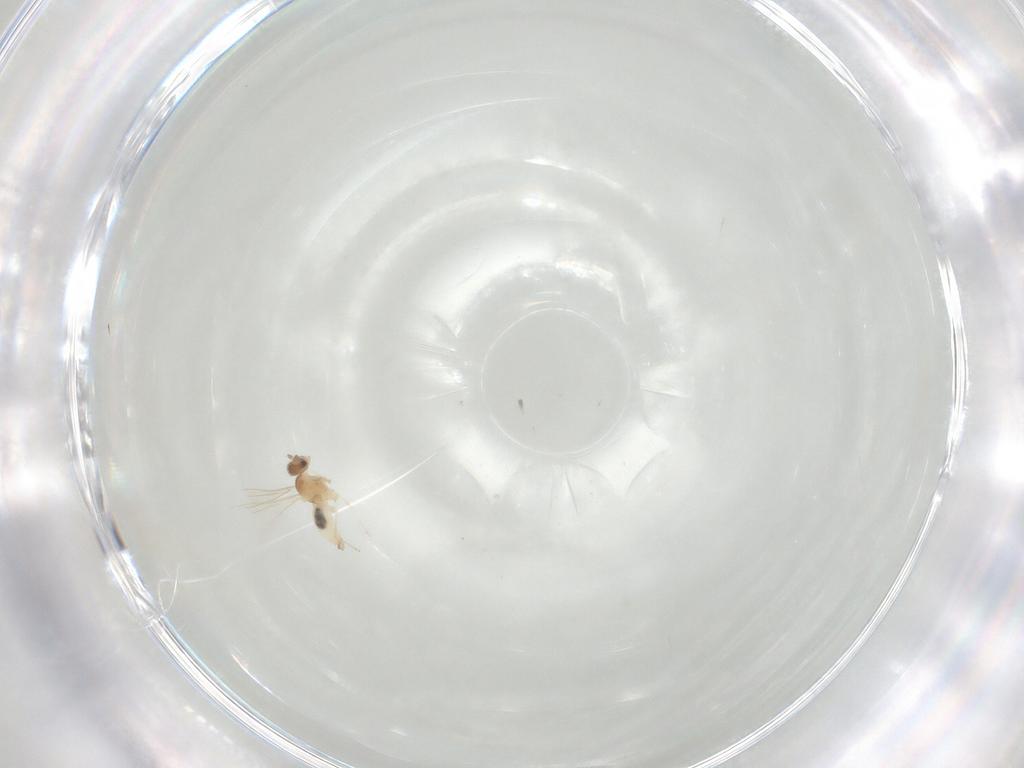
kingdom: Animalia
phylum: Arthropoda
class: Insecta
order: Diptera
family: Cecidomyiidae
